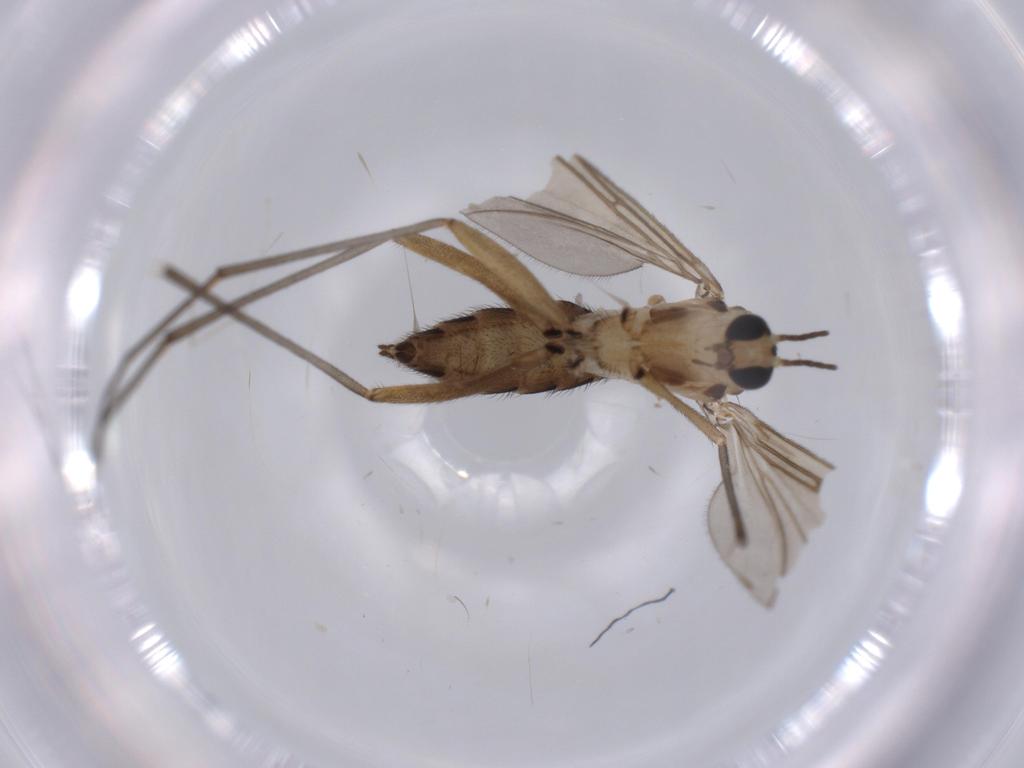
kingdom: Animalia
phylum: Arthropoda
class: Insecta
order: Diptera
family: Sciaridae
